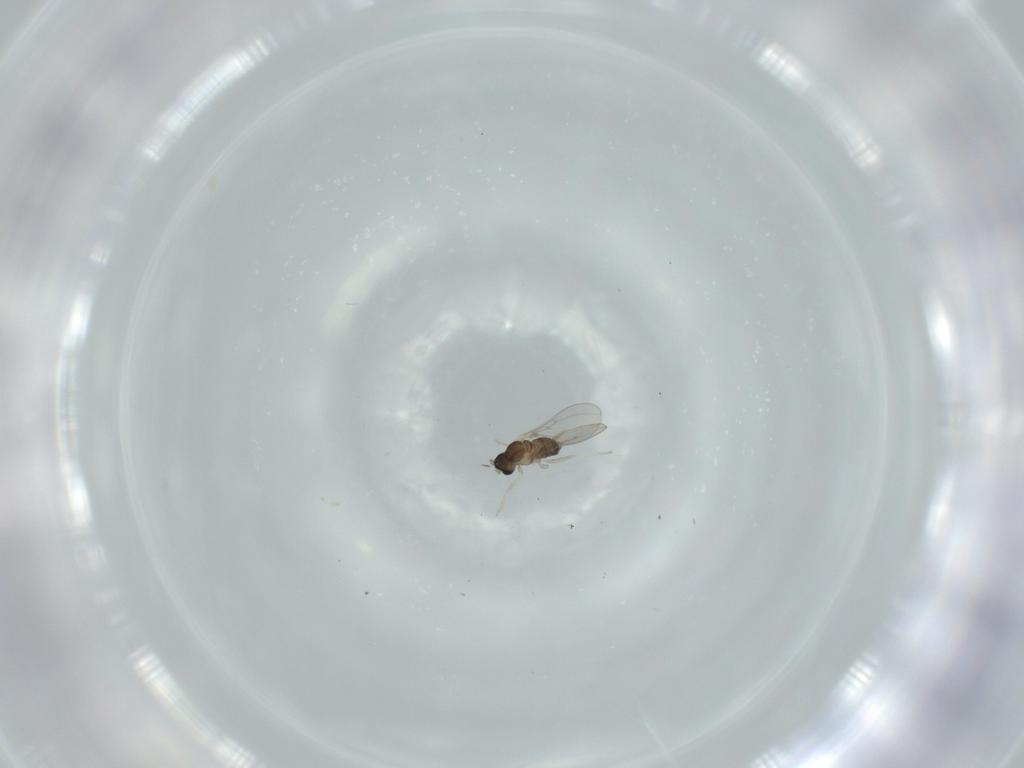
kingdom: Animalia
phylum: Arthropoda
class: Insecta
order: Diptera
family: Cecidomyiidae
